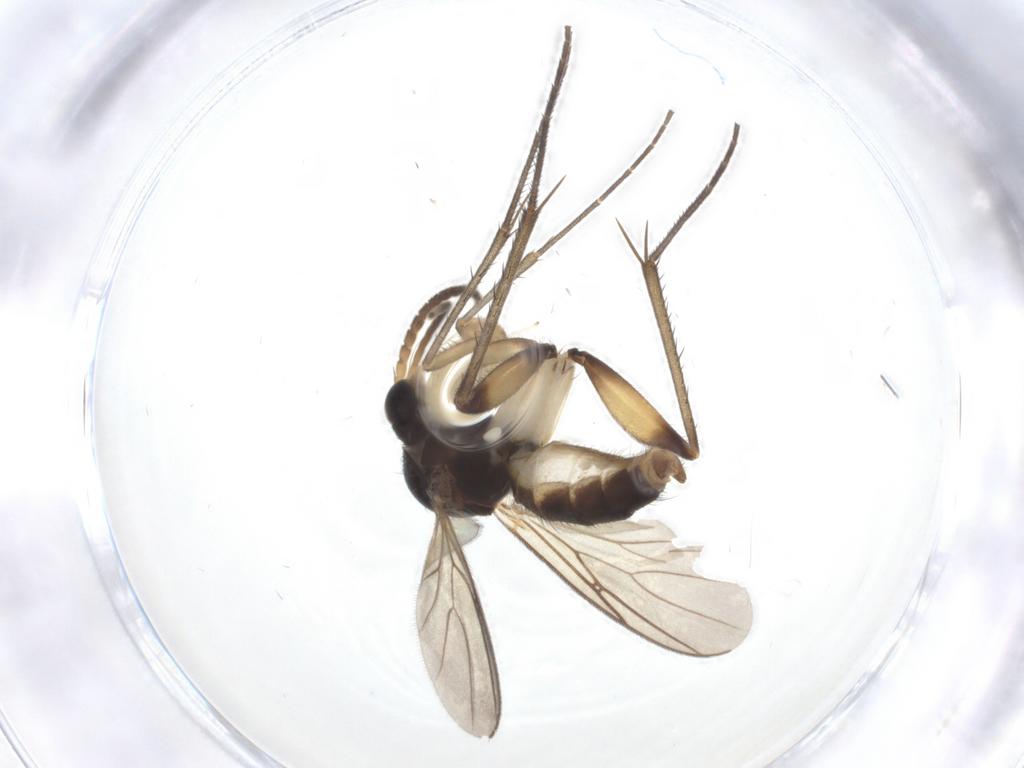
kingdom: Animalia
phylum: Arthropoda
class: Insecta
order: Diptera
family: Mycetophilidae
